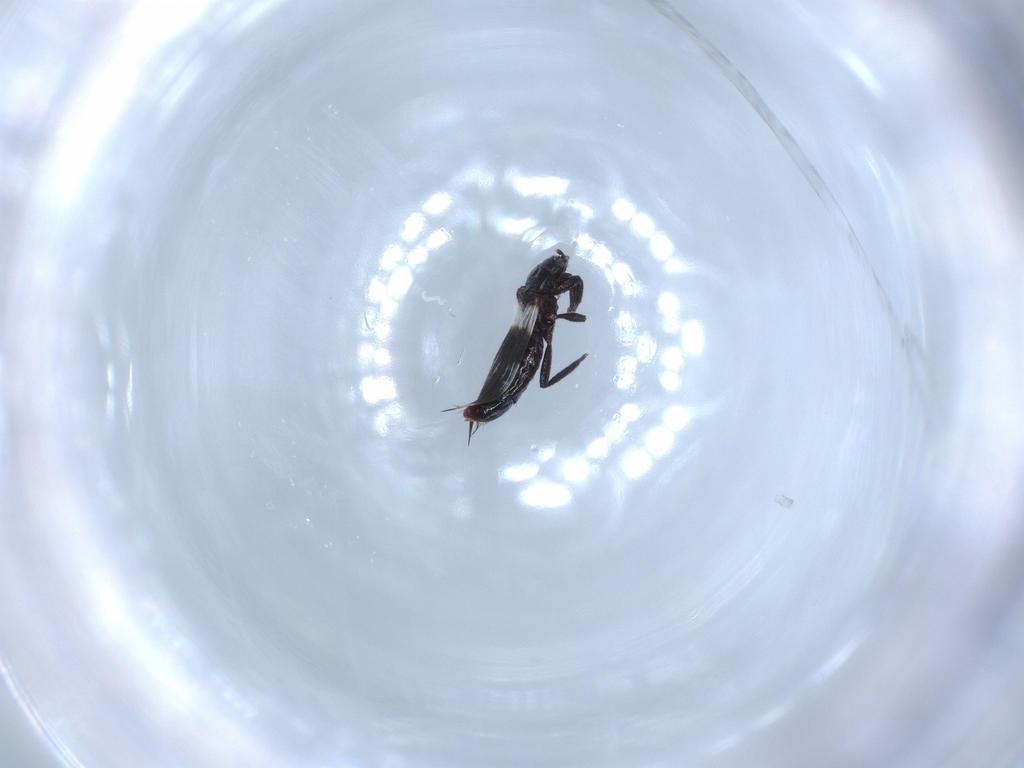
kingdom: Animalia
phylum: Arthropoda
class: Insecta
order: Thysanoptera
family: Aeolothripidae
